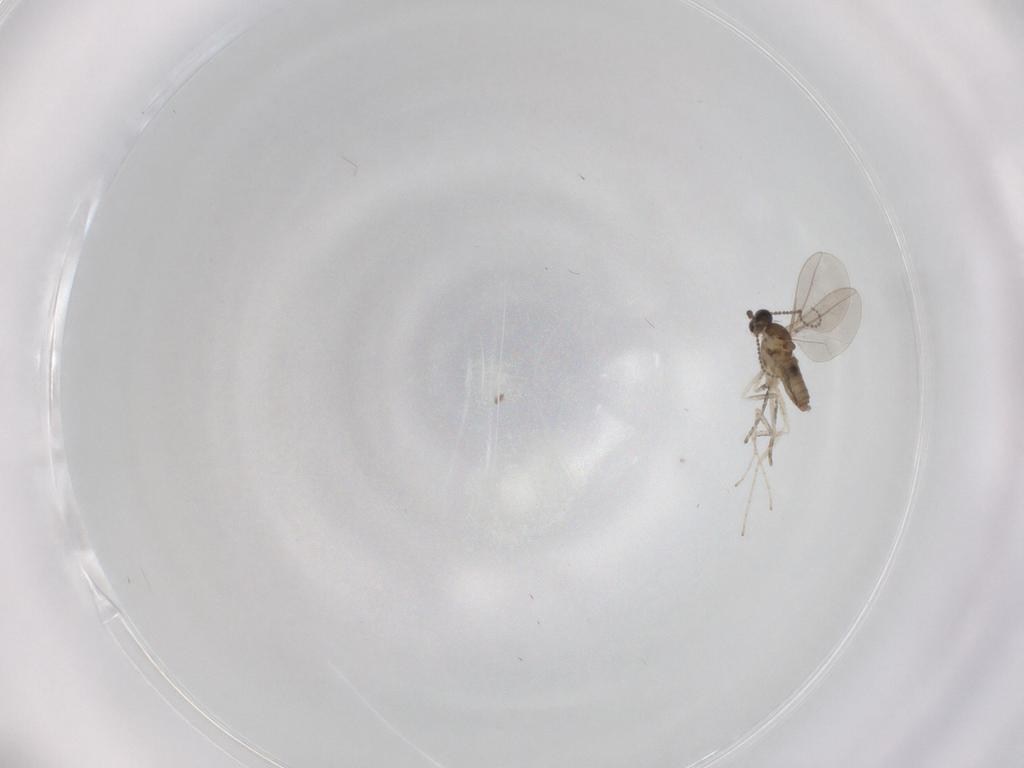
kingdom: Animalia
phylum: Arthropoda
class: Insecta
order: Diptera
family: Cecidomyiidae
